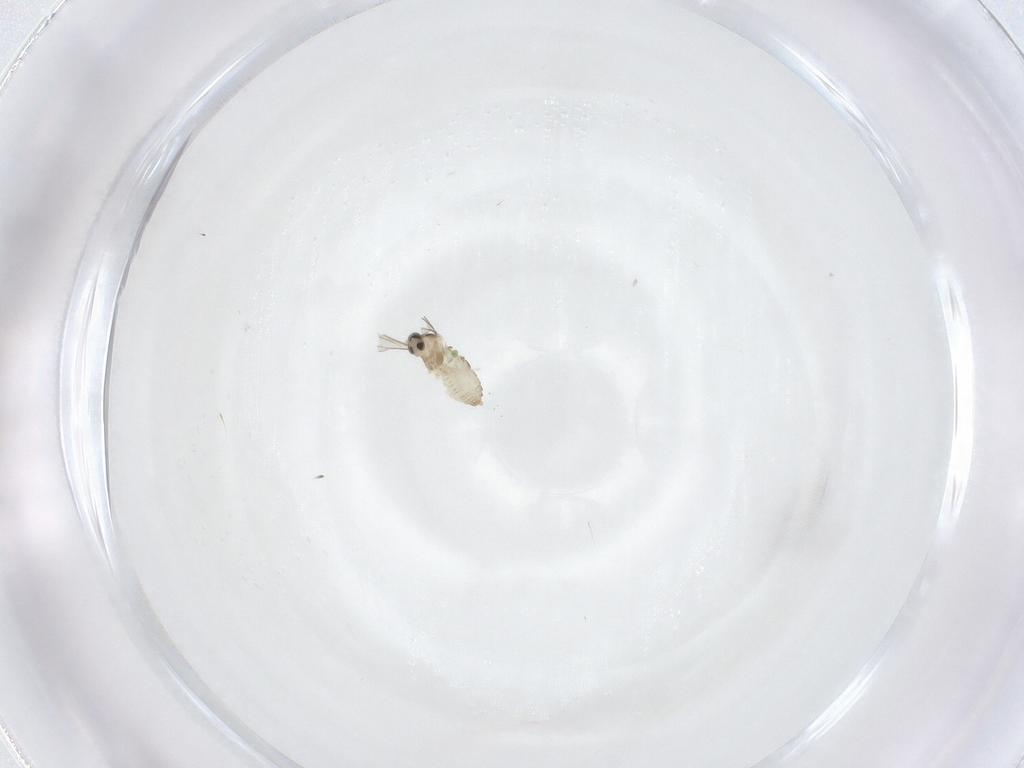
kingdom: Animalia
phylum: Arthropoda
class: Insecta
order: Diptera
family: Cecidomyiidae
